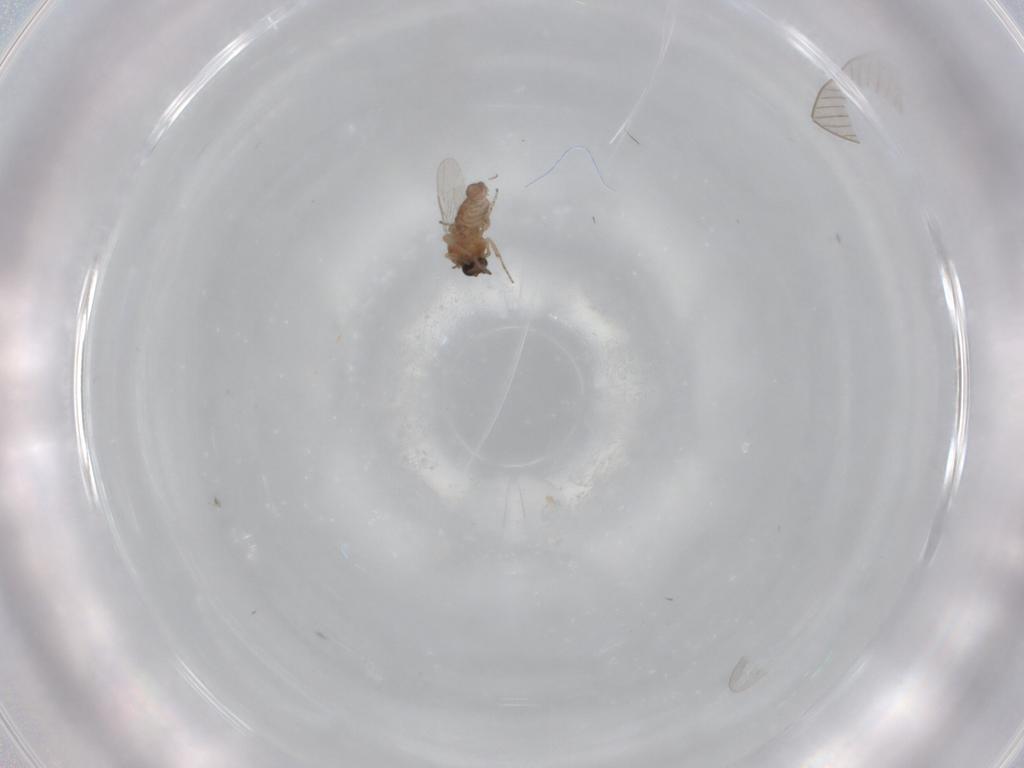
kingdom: Animalia
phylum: Arthropoda
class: Insecta
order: Diptera
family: Ceratopogonidae
